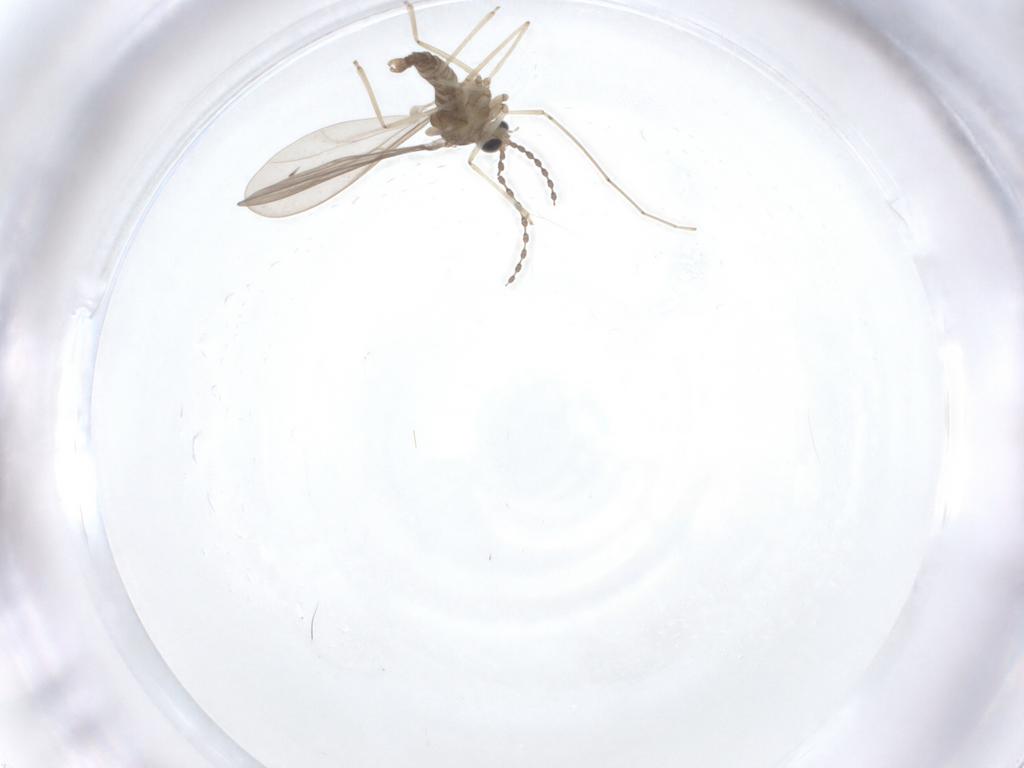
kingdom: Animalia
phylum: Arthropoda
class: Insecta
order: Diptera
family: Cecidomyiidae
